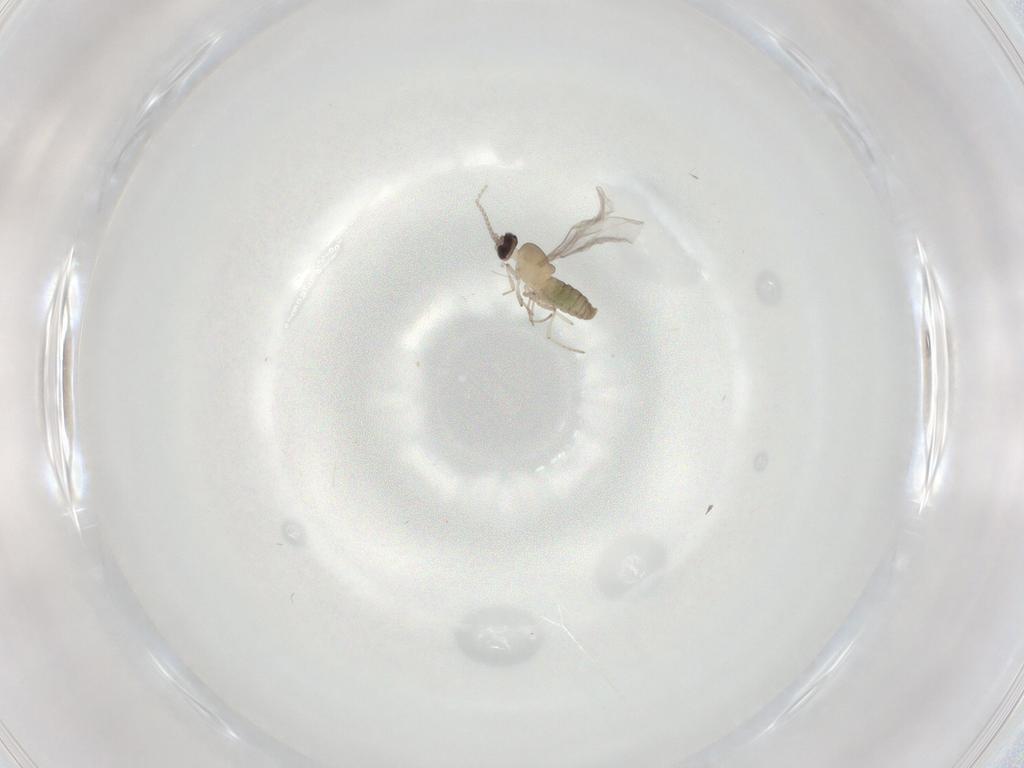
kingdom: Animalia
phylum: Arthropoda
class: Insecta
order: Diptera
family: Cecidomyiidae
